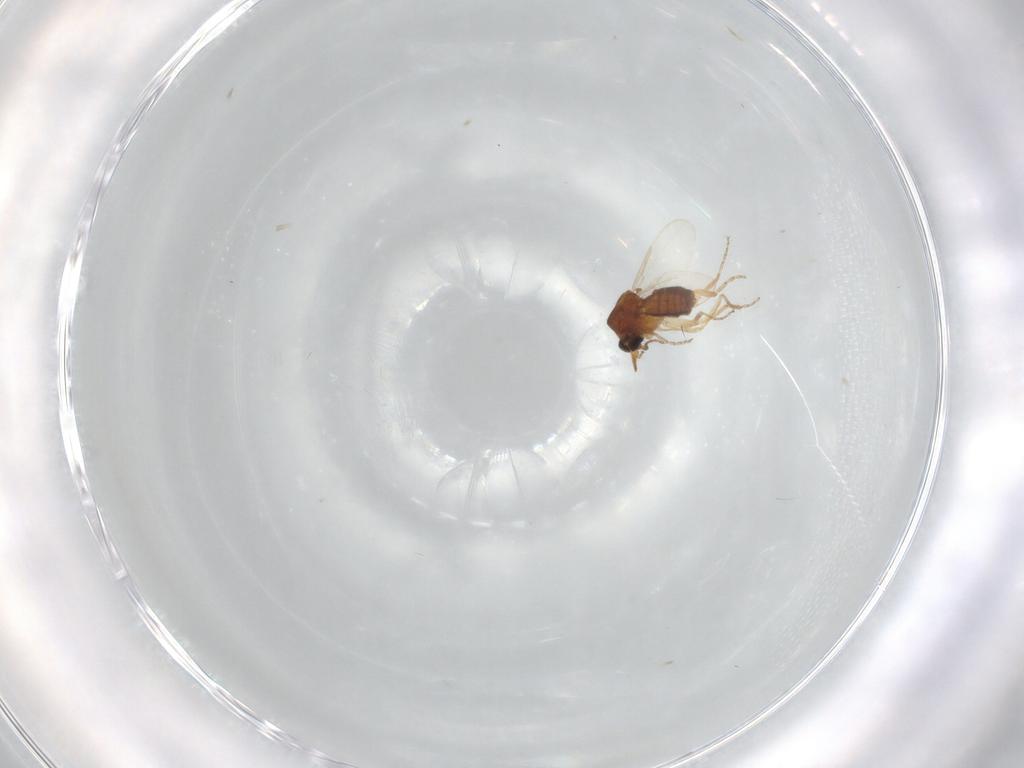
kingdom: Animalia
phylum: Arthropoda
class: Insecta
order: Diptera
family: Ceratopogonidae
